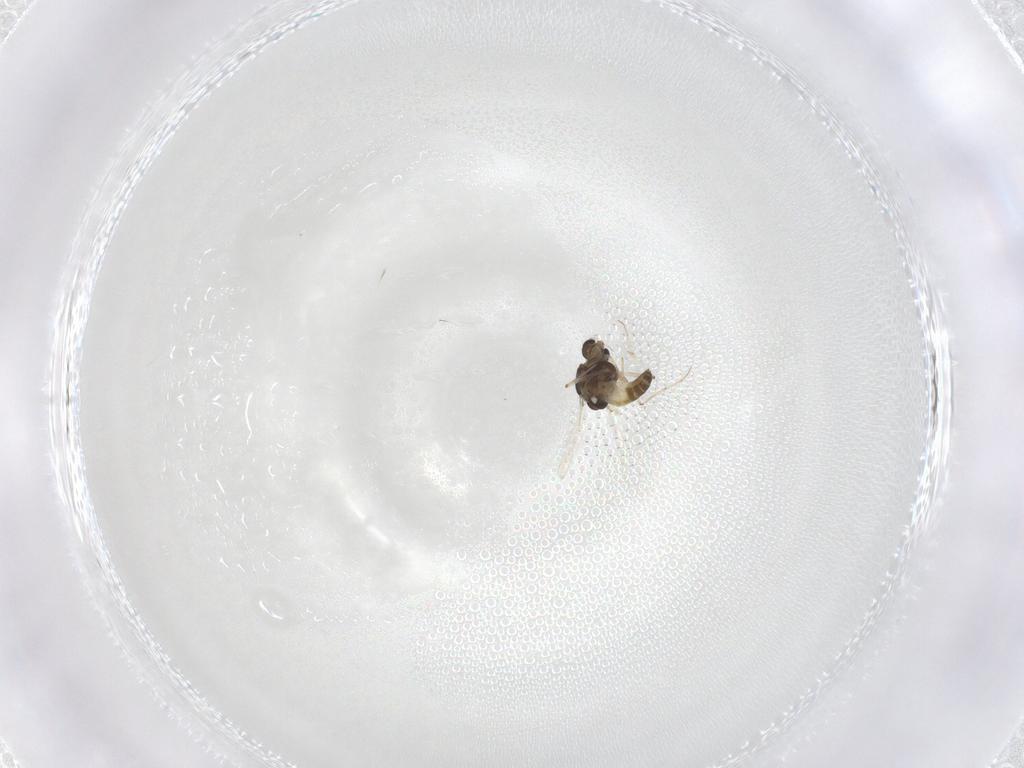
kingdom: Animalia
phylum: Arthropoda
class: Insecta
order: Diptera
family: Chironomidae
